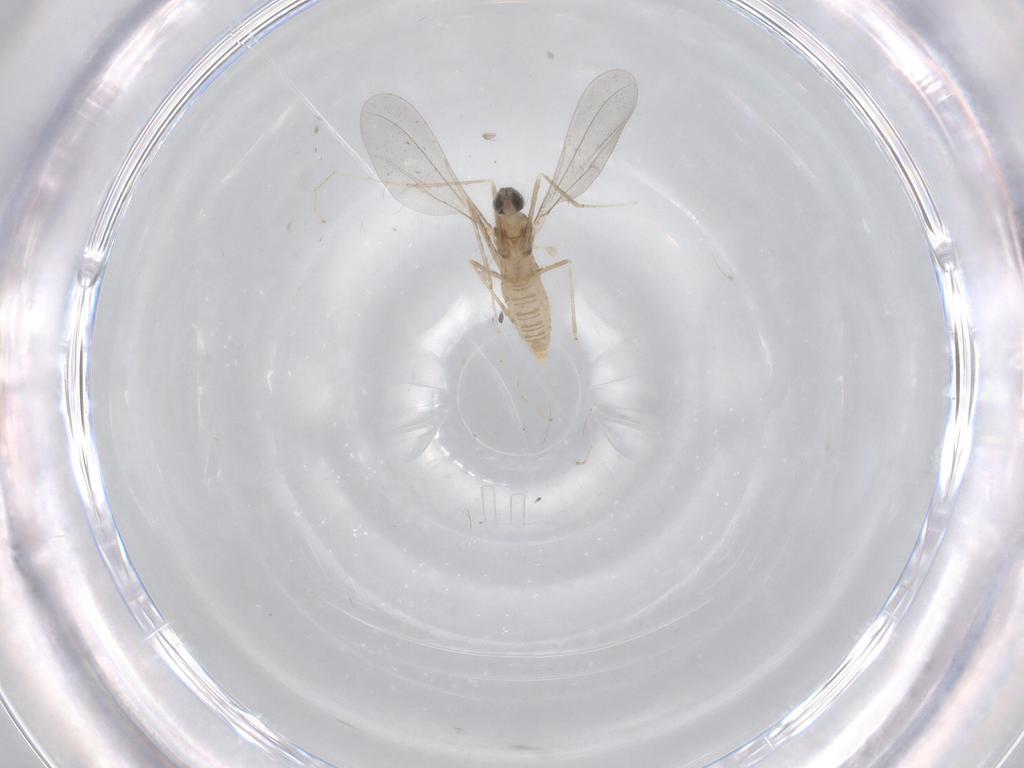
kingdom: Animalia
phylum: Arthropoda
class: Insecta
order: Diptera
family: Cecidomyiidae
